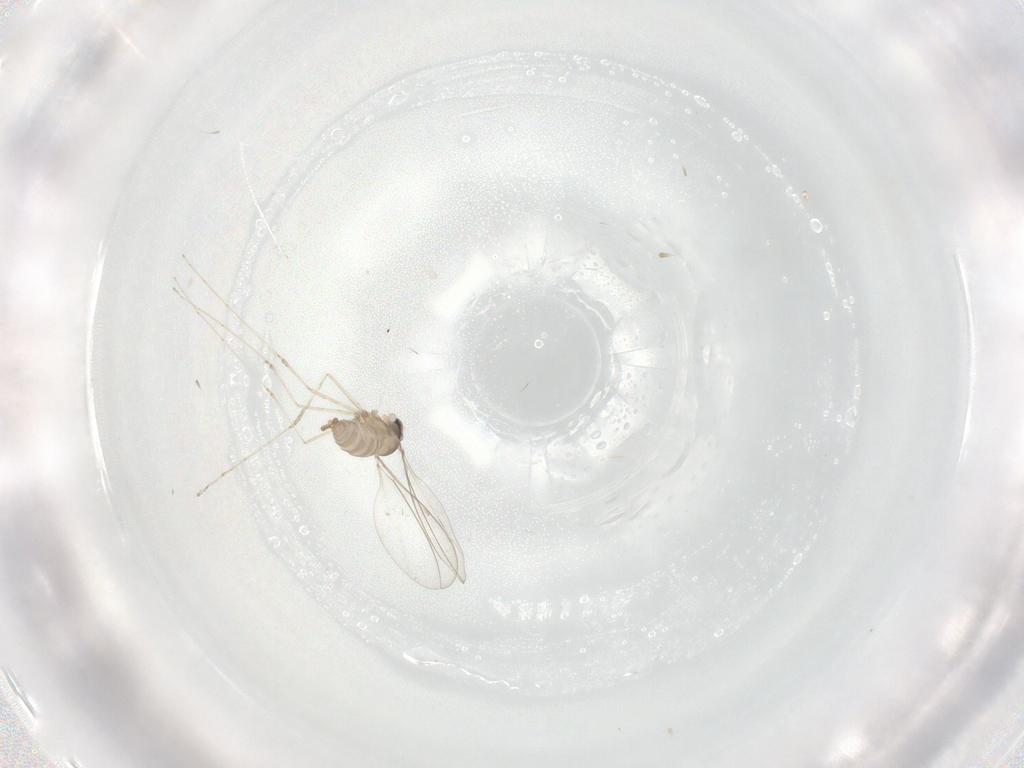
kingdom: Animalia
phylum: Arthropoda
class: Insecta
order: Diptera
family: Cecidomyiidae
